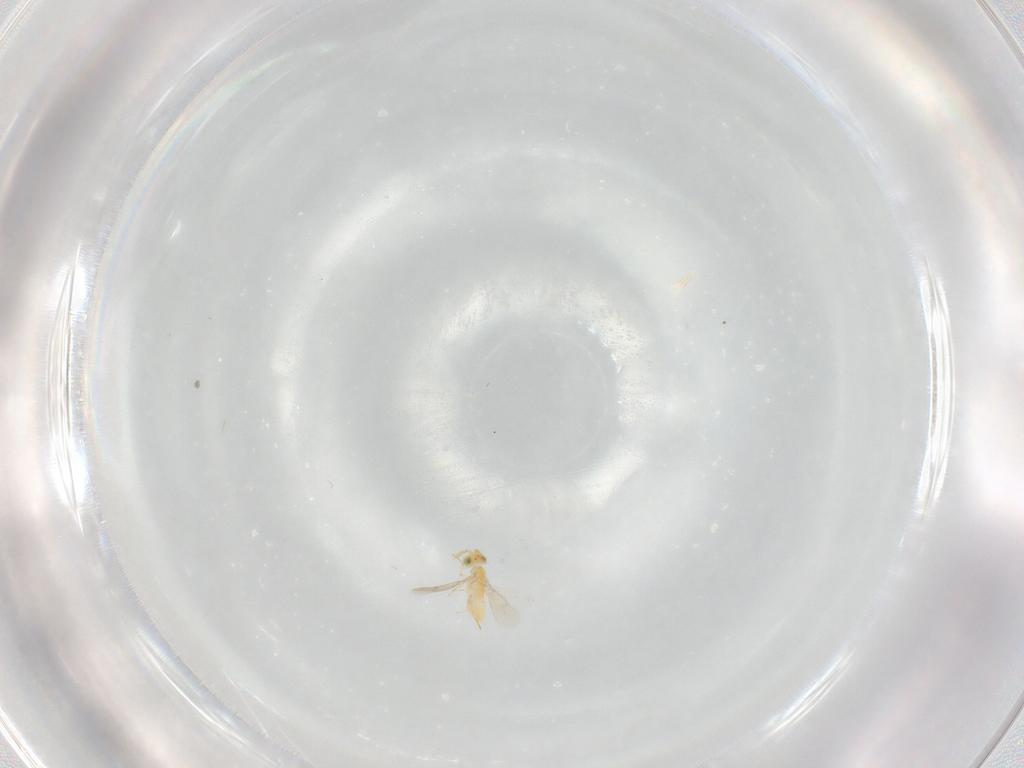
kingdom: Animalia
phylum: Arthropoda
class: Insecta
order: Hymenoptera
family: Aphelinidae
